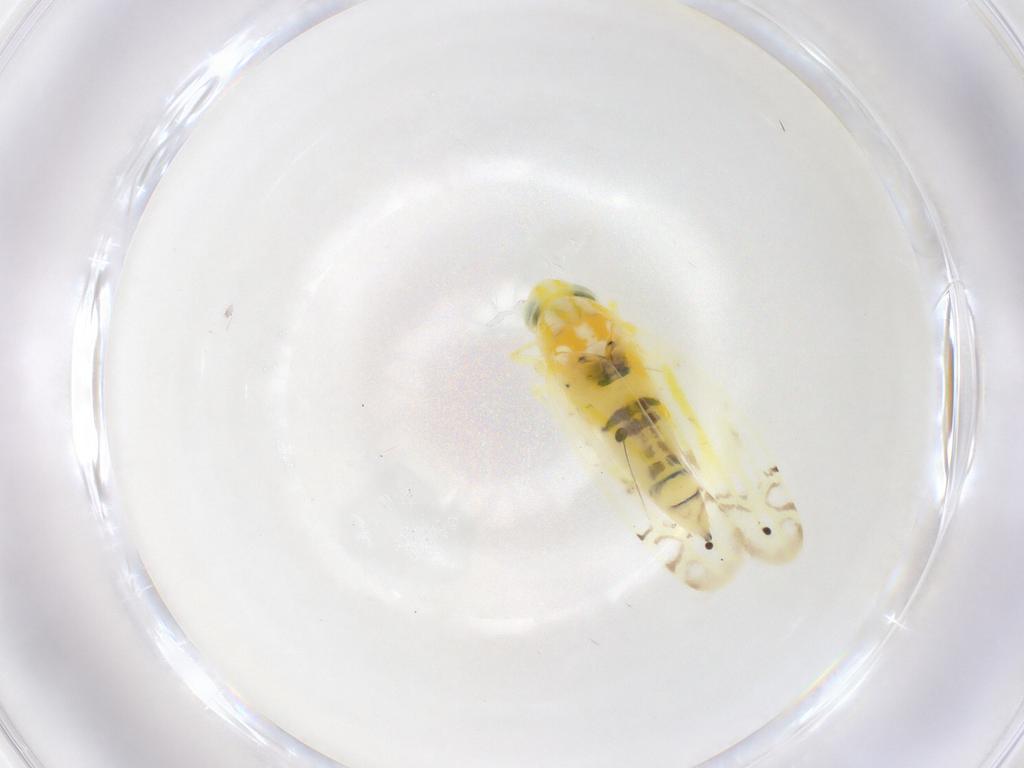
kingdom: Animalia
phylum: Arthropoda
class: Insecta
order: Hemiptera
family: Cicadellidae
